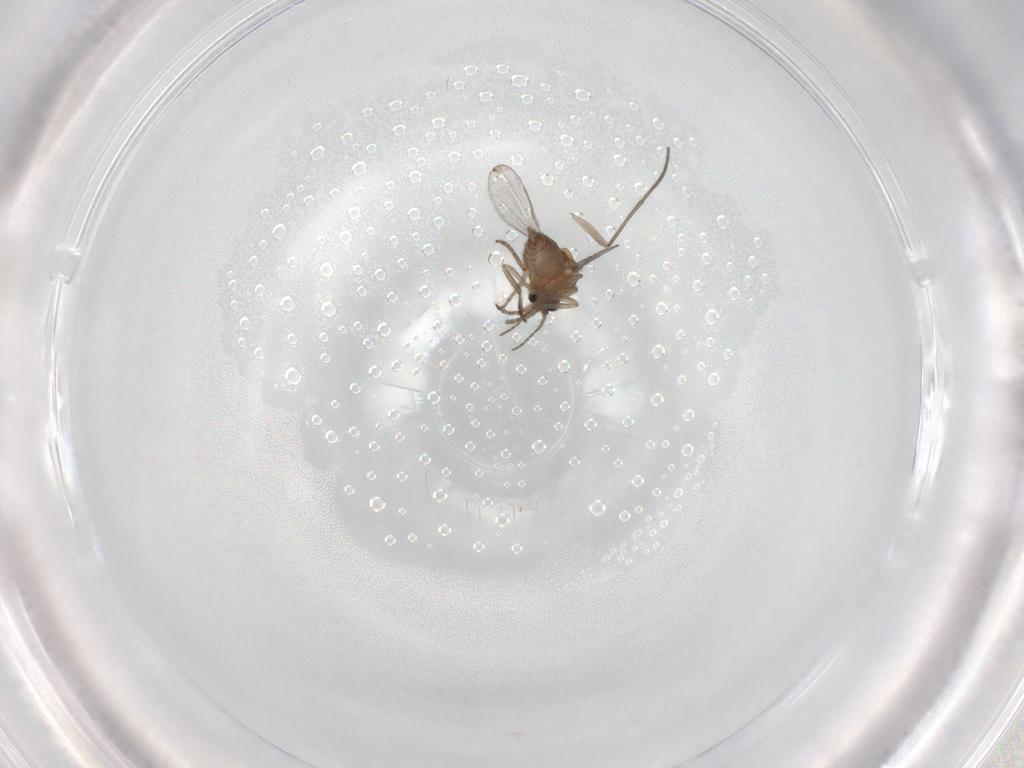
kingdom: Animalia
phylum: Arthropoda
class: Insecta
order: Diptera
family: Chironomidae
